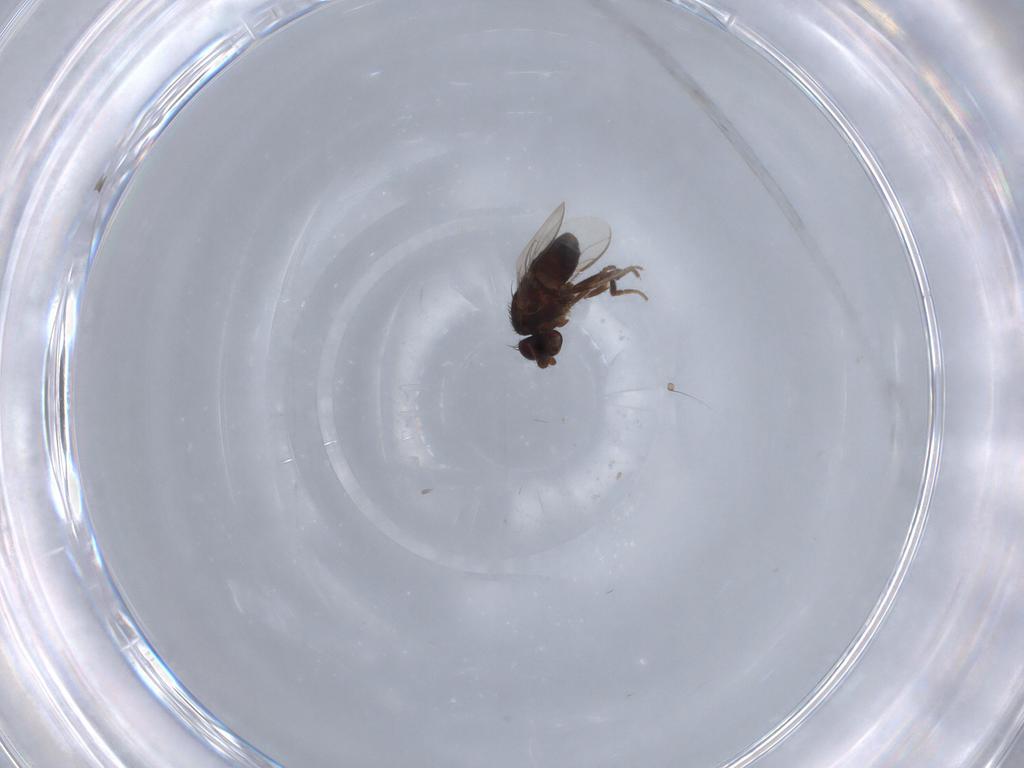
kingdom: Animalia
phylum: Arthropoda
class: Insecta
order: Diptera
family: Sphaeroceridae
